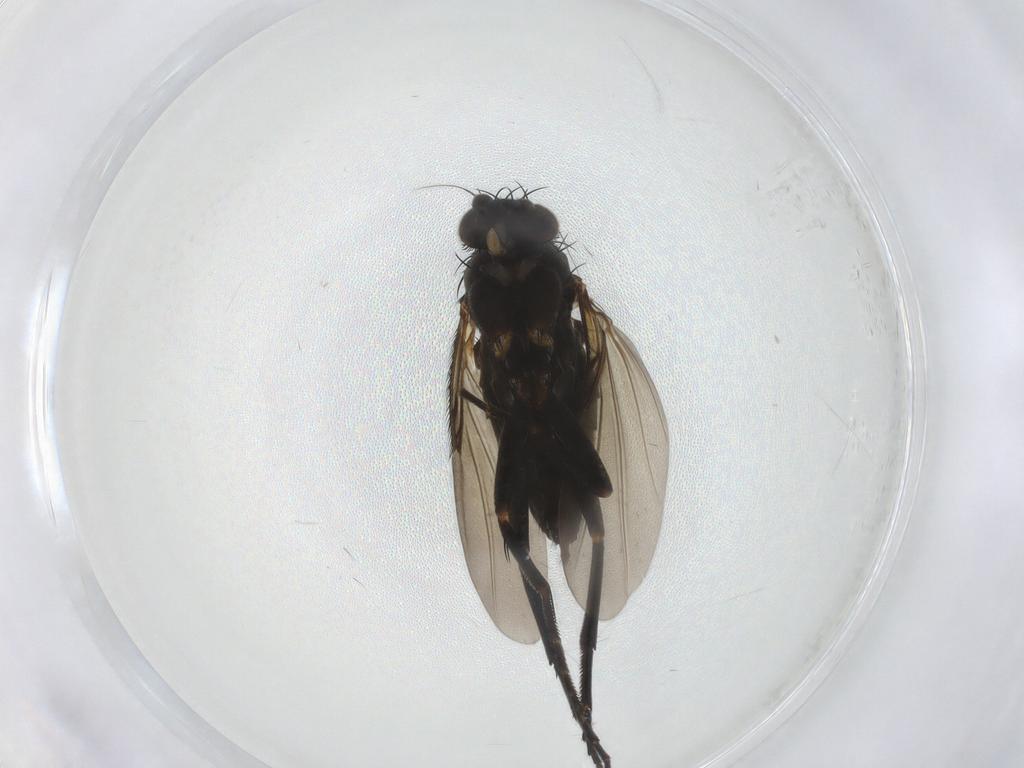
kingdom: Animalia
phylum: Arthropoda
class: Insecta
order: Diptera
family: Phoridae
